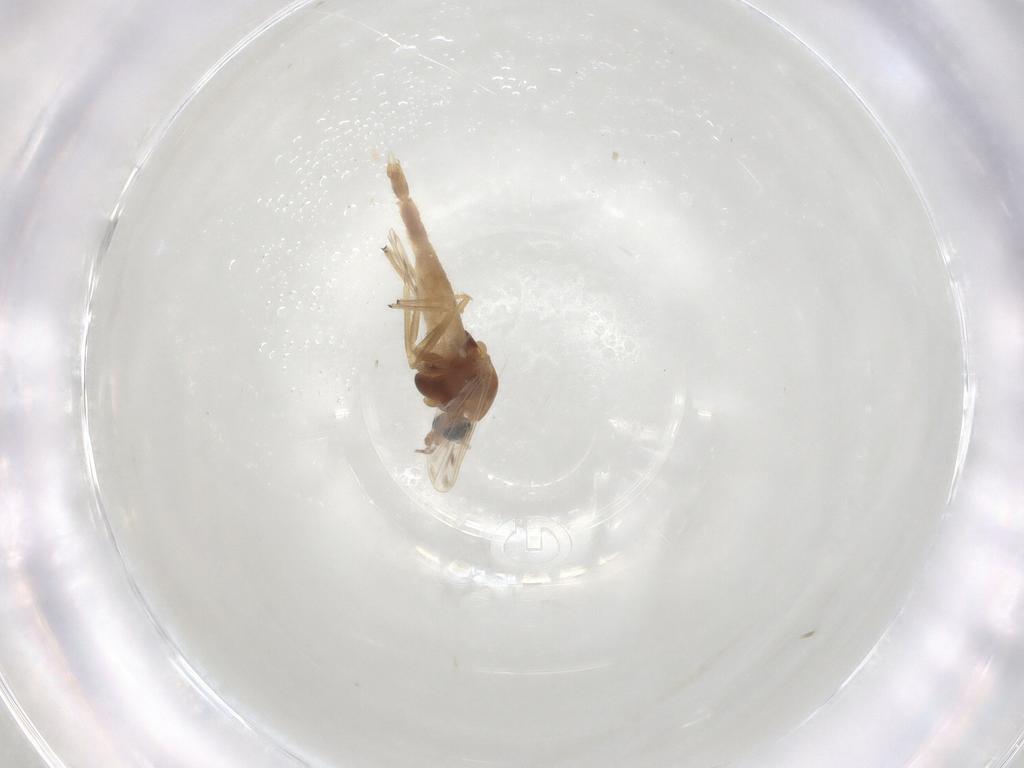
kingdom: Animalia
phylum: Arthropoda
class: Insecta
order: Diptera
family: Chironomidae
